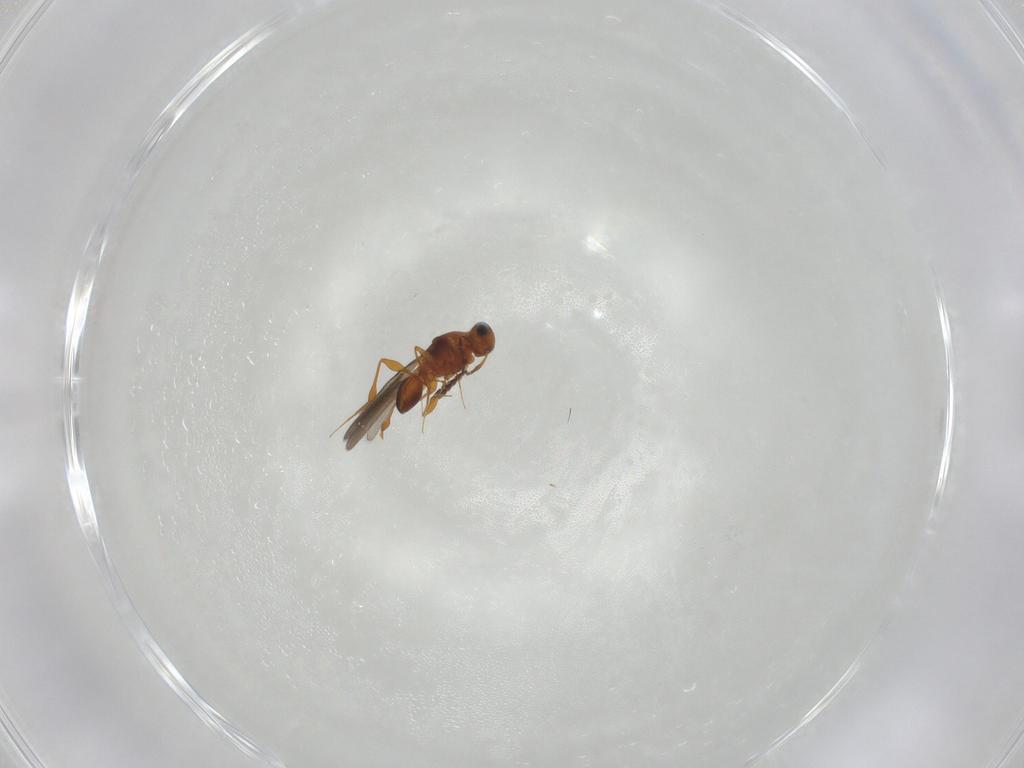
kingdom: Animalia
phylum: Arthropoda
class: Insecta
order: Hymenoptera
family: Platygastridae
